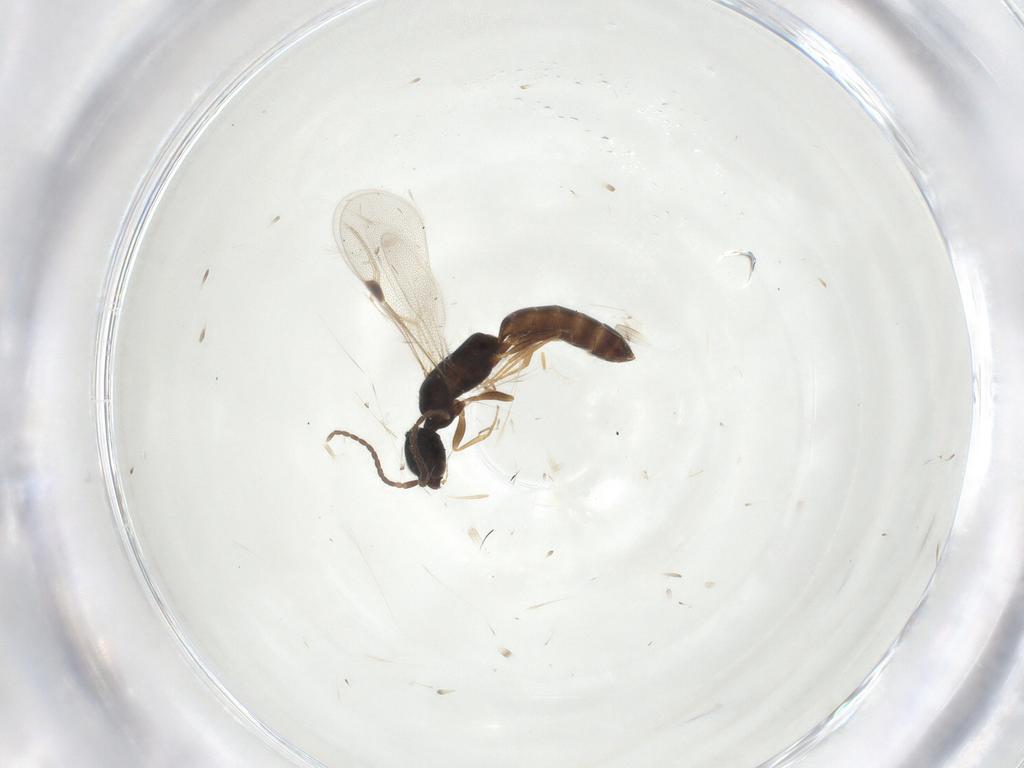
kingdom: Animalia
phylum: Arthropoda
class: Insecta
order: Hymenoptera
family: Bethylidae
